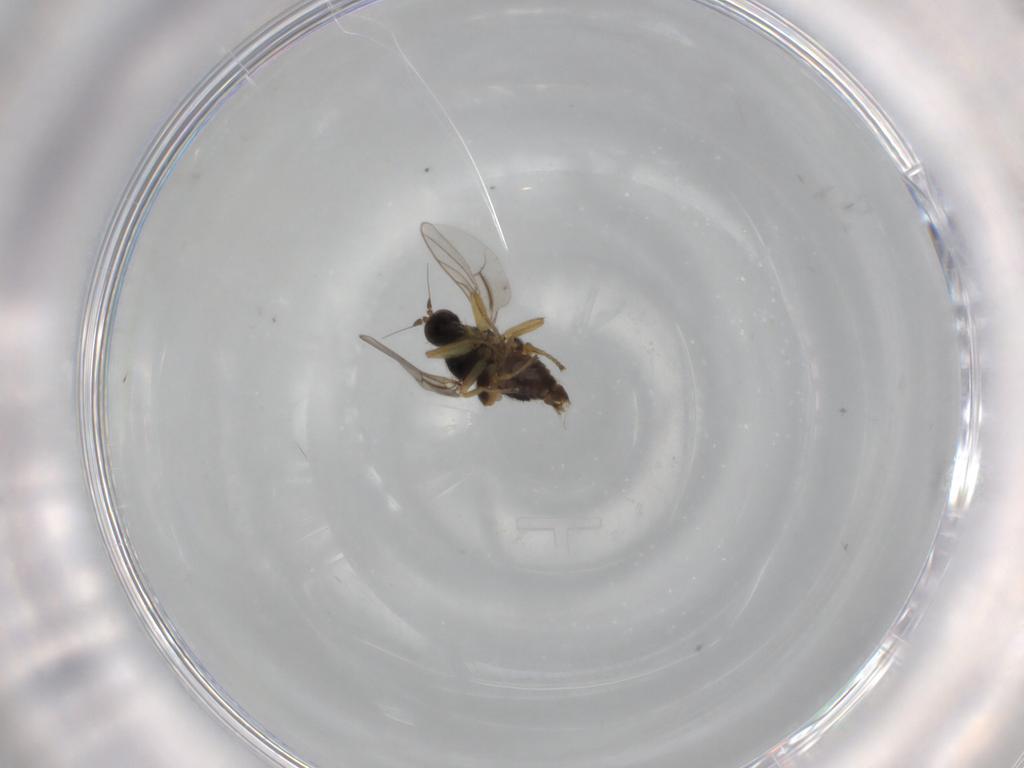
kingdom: Animalia
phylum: Arthropoda
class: Insecta
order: Diptera
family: Hybotidae
